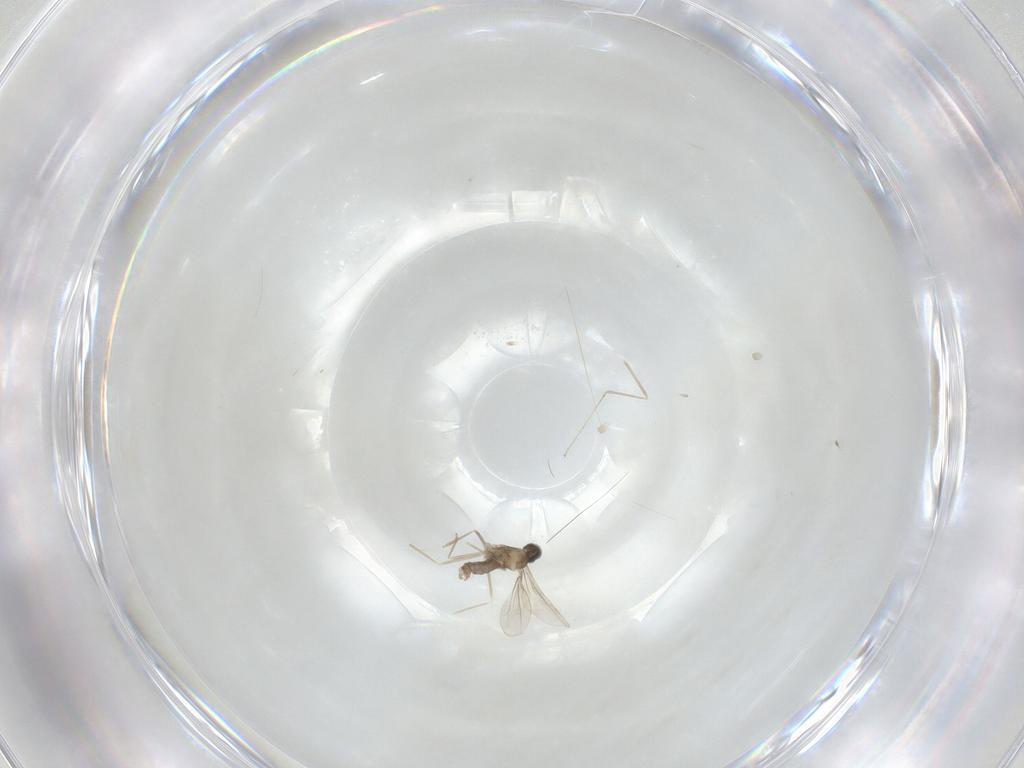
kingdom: Animalia
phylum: Arthropoda
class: Insecta
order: Diptera
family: Cecidomyiidae
